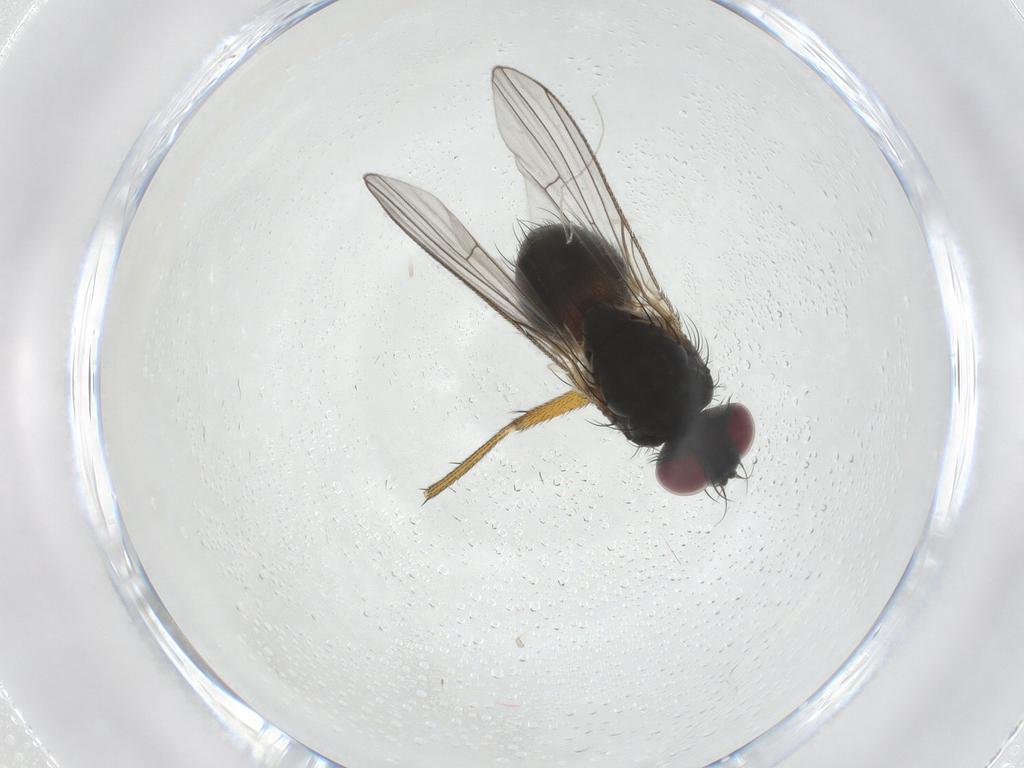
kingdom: Animalia
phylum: Arthropoda
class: Insecta
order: Diptera
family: Muscidae
